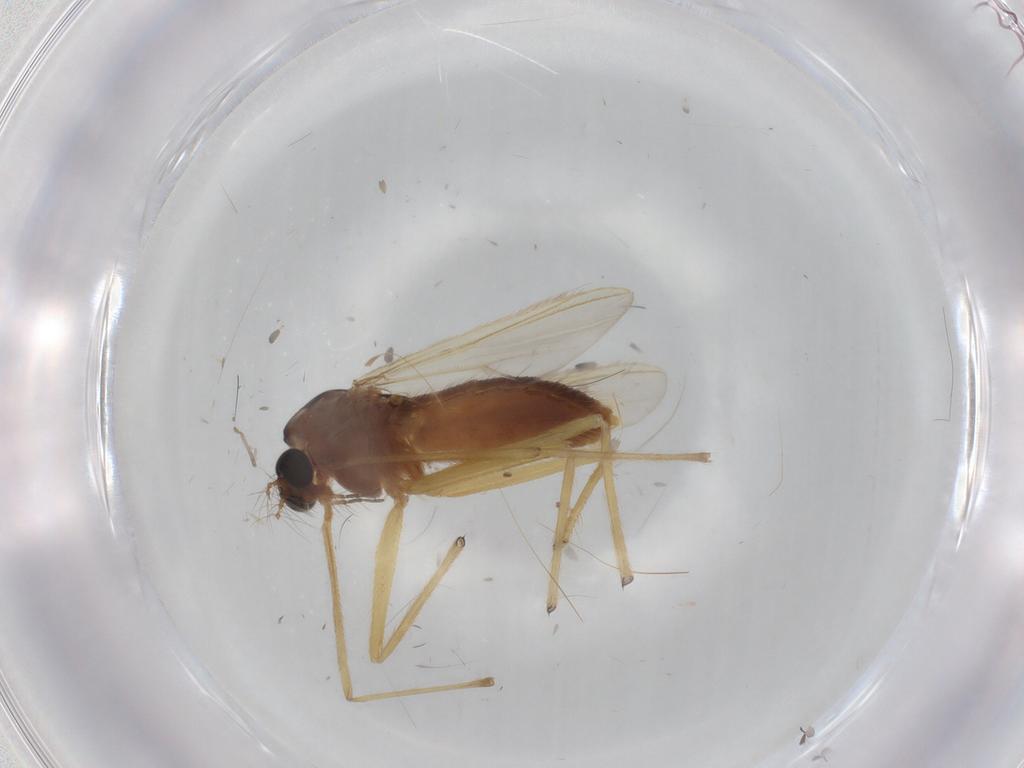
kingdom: Animalia
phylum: Arthropoda
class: Insecta
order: Diptera
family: Chironomidae
